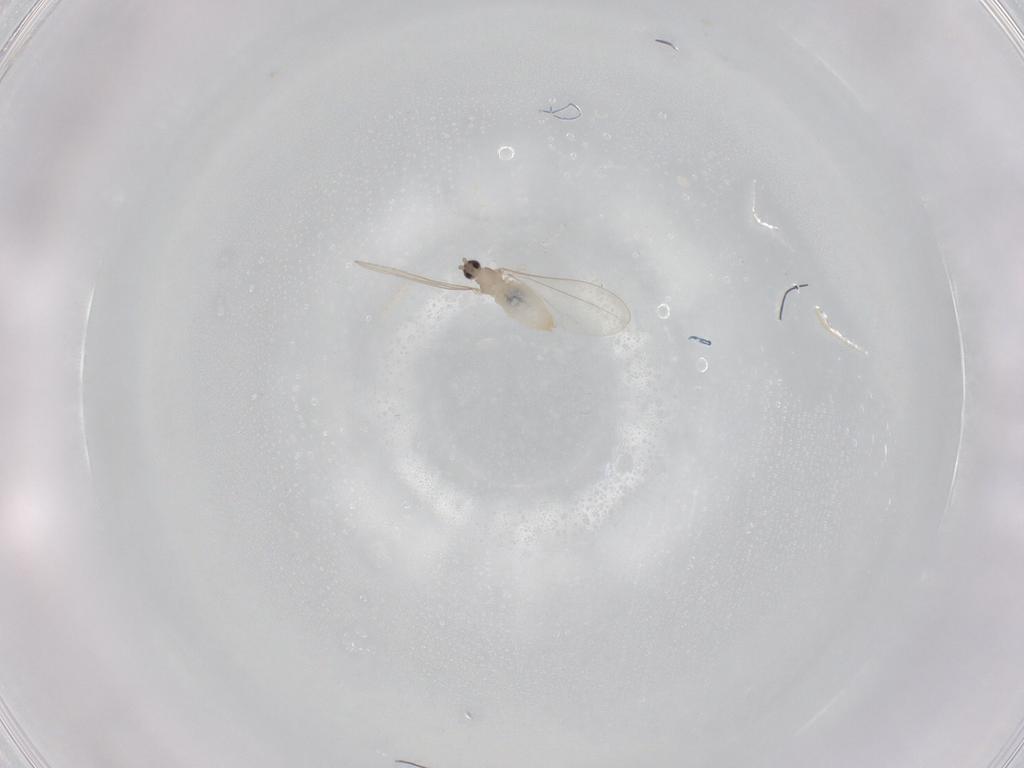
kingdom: Animalia
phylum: Arthropoda
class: Insecta
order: Diptera
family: Cecidomyiidae
